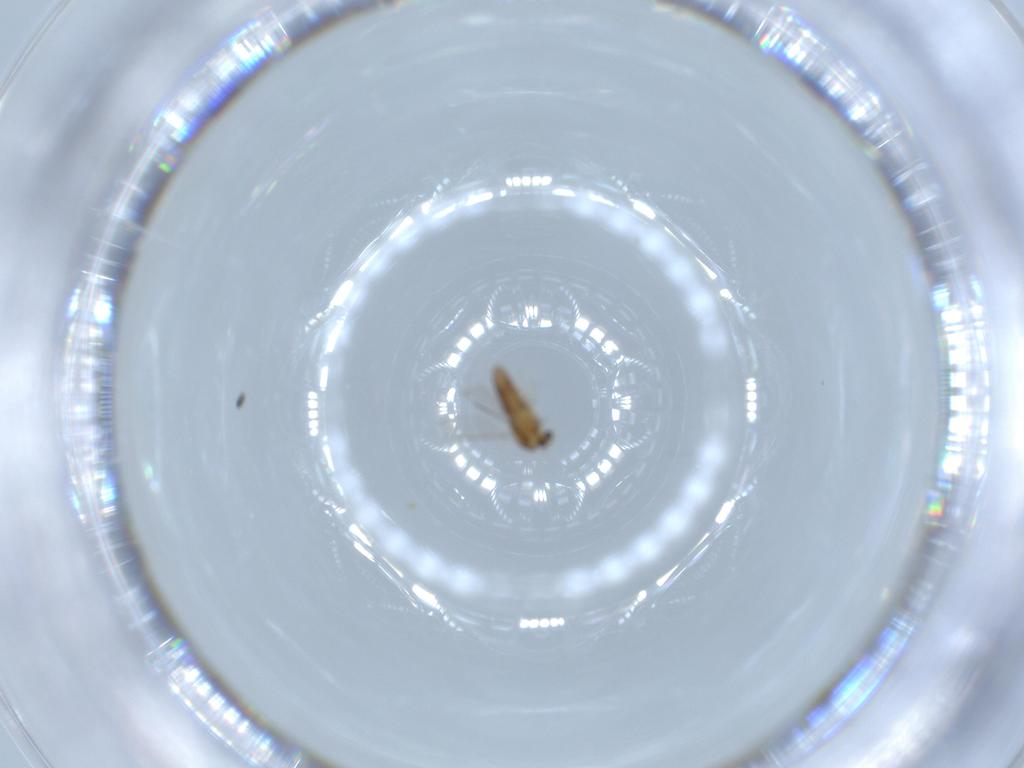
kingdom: Animalia
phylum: Arthropoda
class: Insecta
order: Diptera
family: Chironomidae
